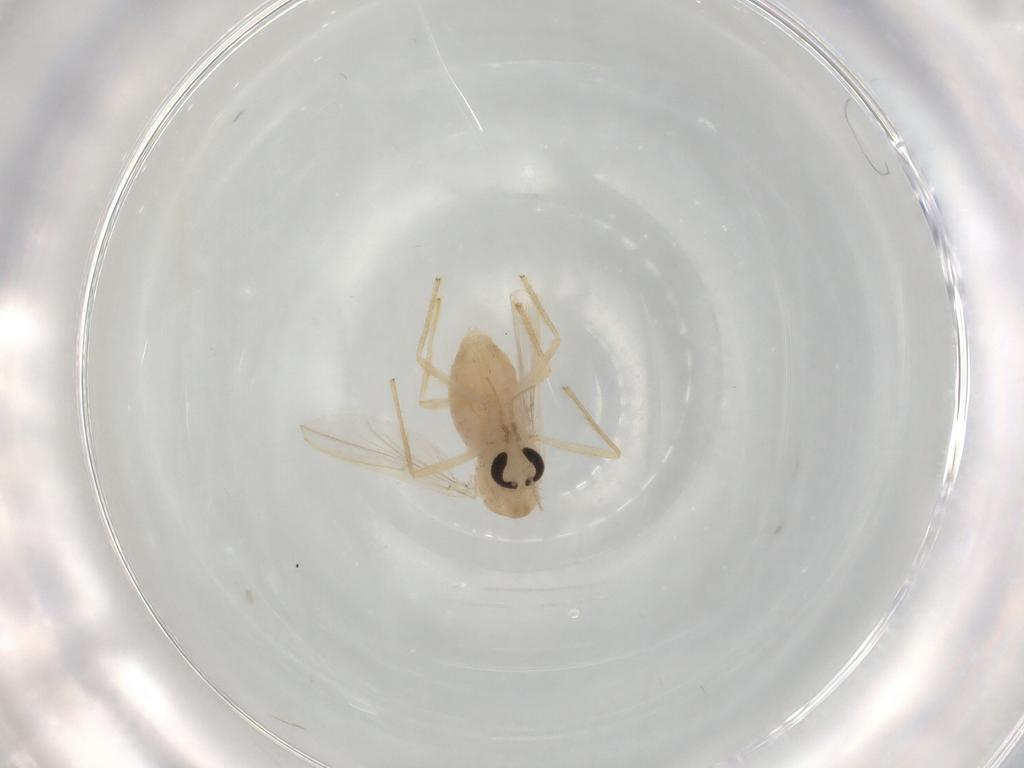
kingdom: Animalia
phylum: Arthropoda
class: Insecta
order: Diptera
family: Chironomidae
